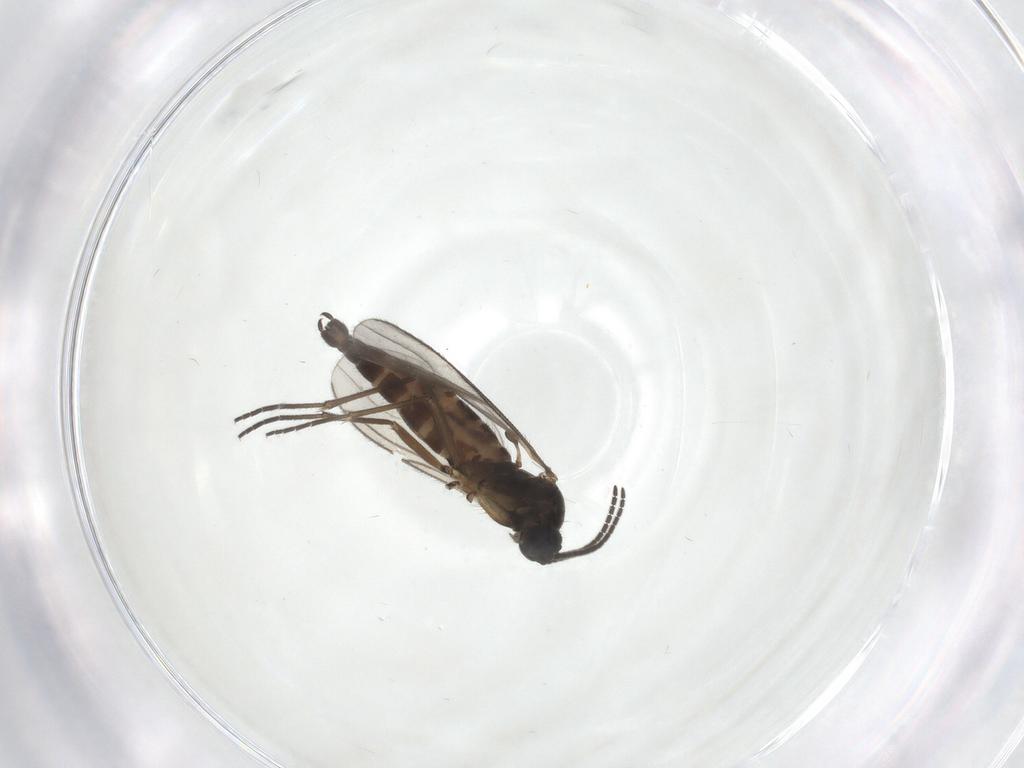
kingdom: Animalia
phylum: Arthropoda
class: Insecta
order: Diptera
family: Sciaridae
